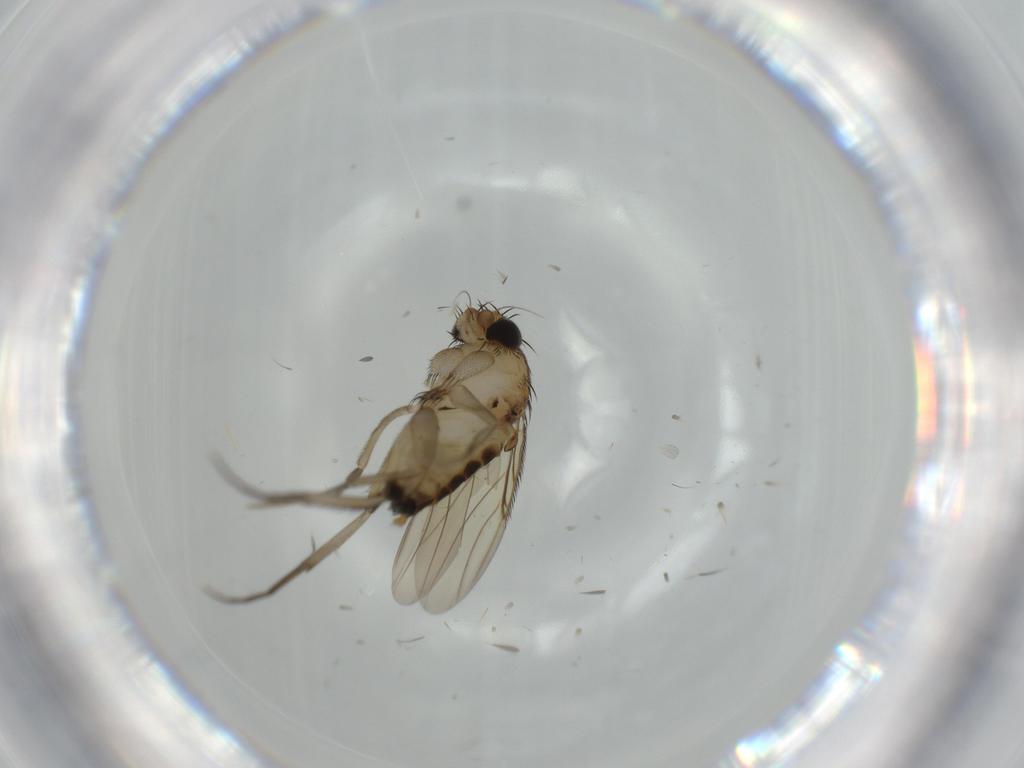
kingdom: Animalia
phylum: Arthropoda
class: Insecta
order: Diptera
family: Phoridae
